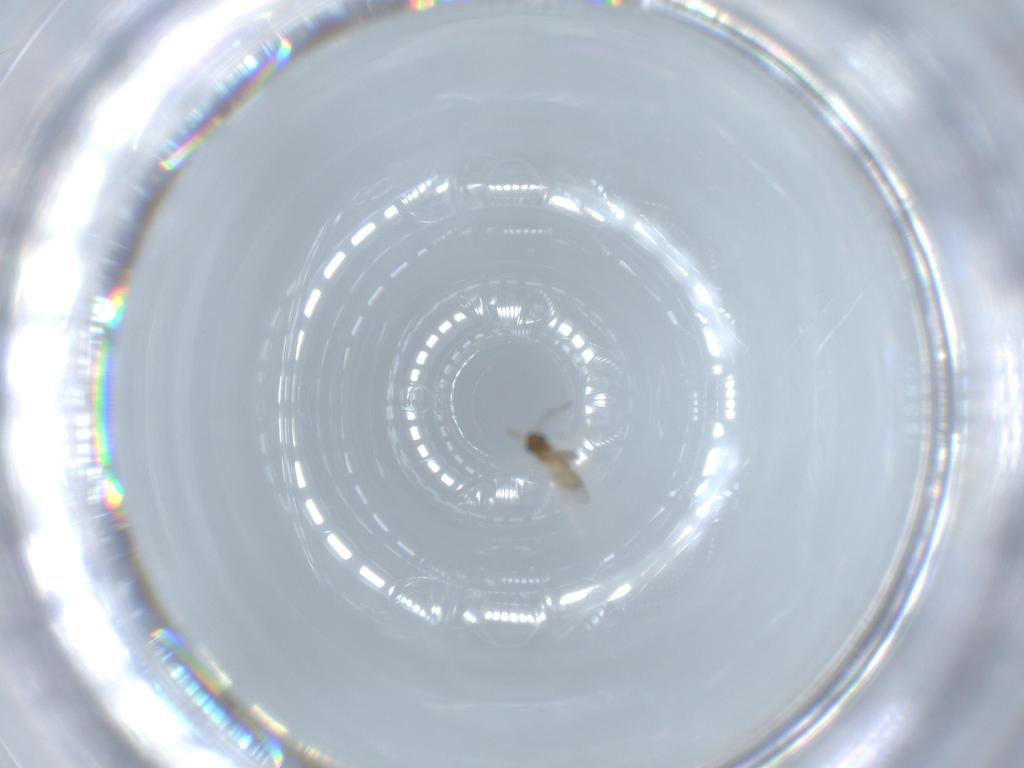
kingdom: Animalia
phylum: Arthropoda
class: Insecta
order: Diptera
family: Cecidomyiidae
